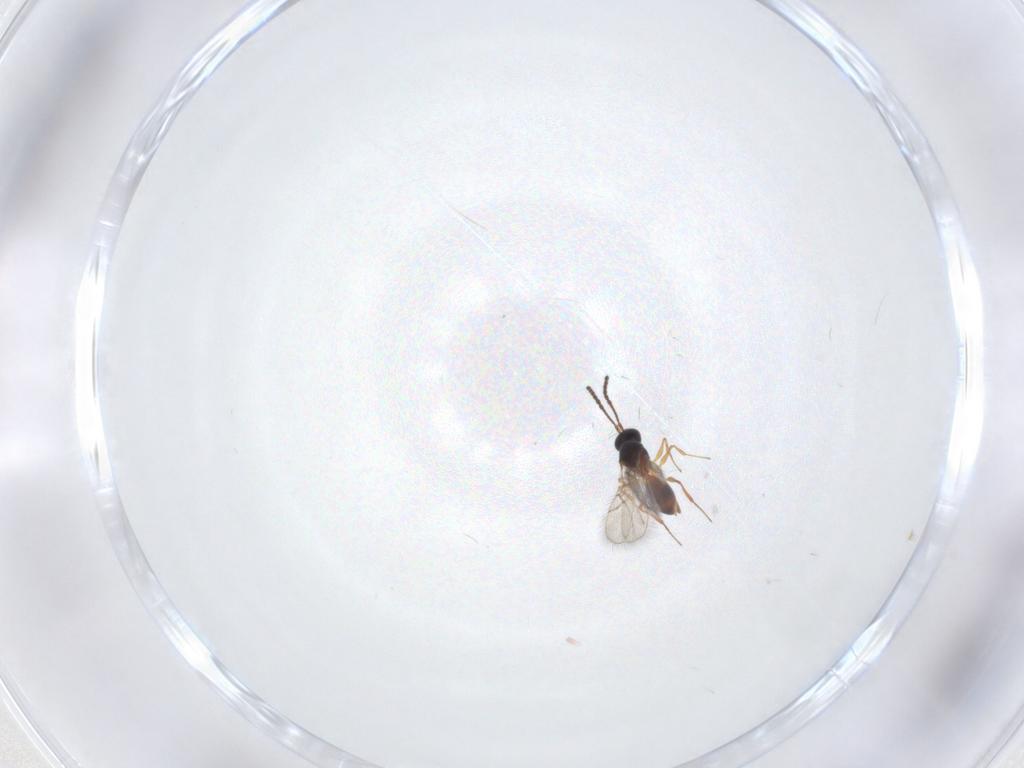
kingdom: Animalia
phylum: Arthropoda
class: Insecta
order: Hymenoptera
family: Figitidae
